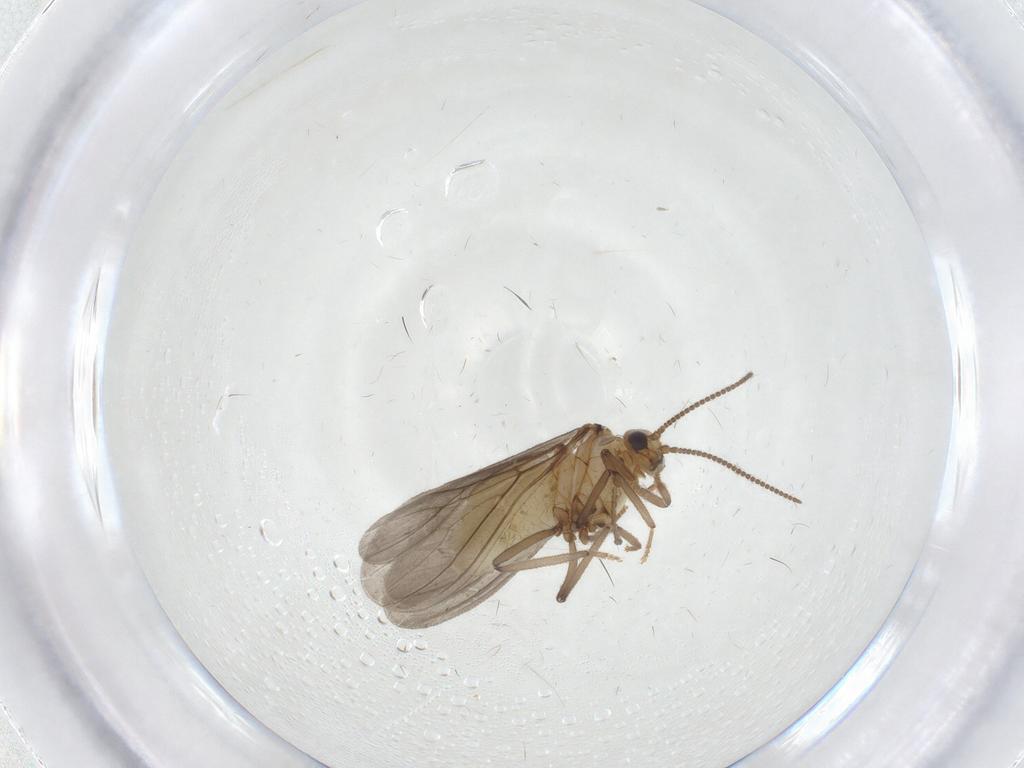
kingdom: Animalia
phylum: Arthropoda
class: Insecta
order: Neuroptera
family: Coniopterygidae
